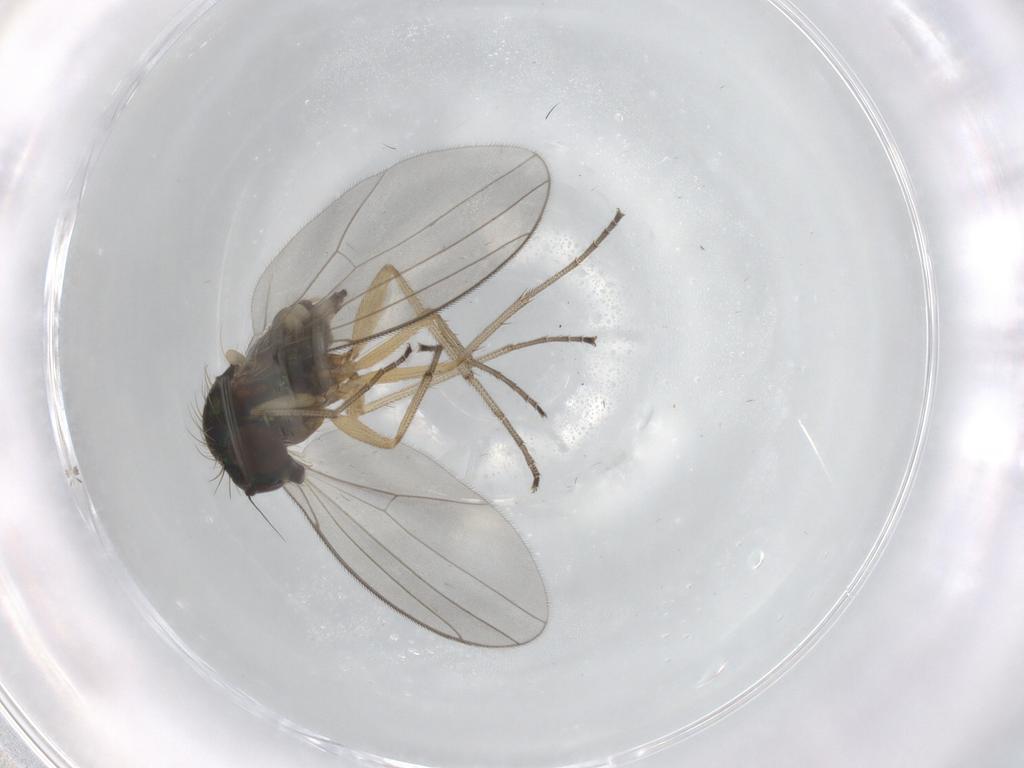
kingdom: Animalia
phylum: Arthropoda
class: Insecta
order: Diptera
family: Dolichopodidae
